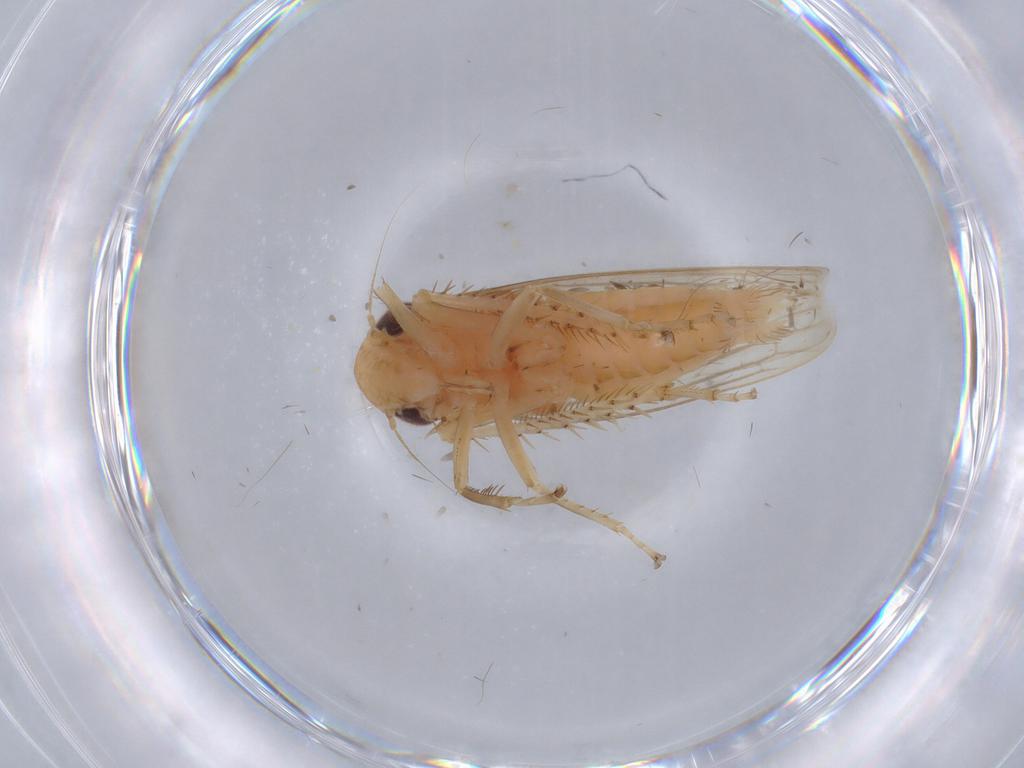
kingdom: Animalia
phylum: Arthropoda
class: Insecta
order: Hemiptera
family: Cicadellidae
